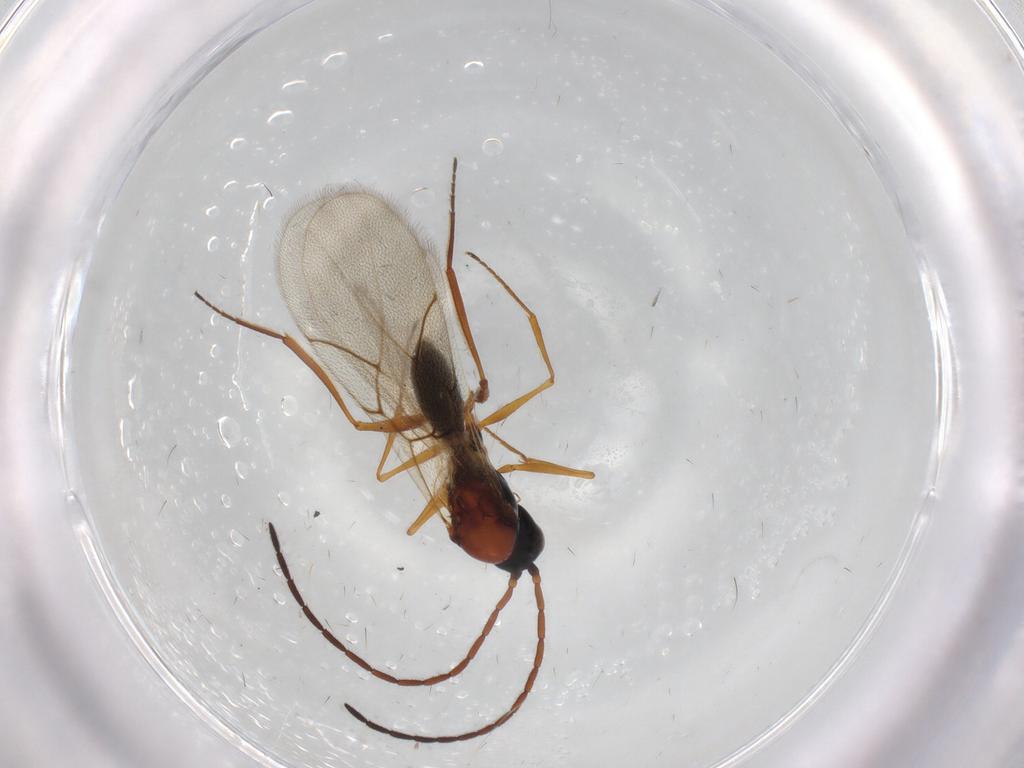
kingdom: Animalia
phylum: Arthropoda
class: Insecta
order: Hymenoptera
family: Figitidae
